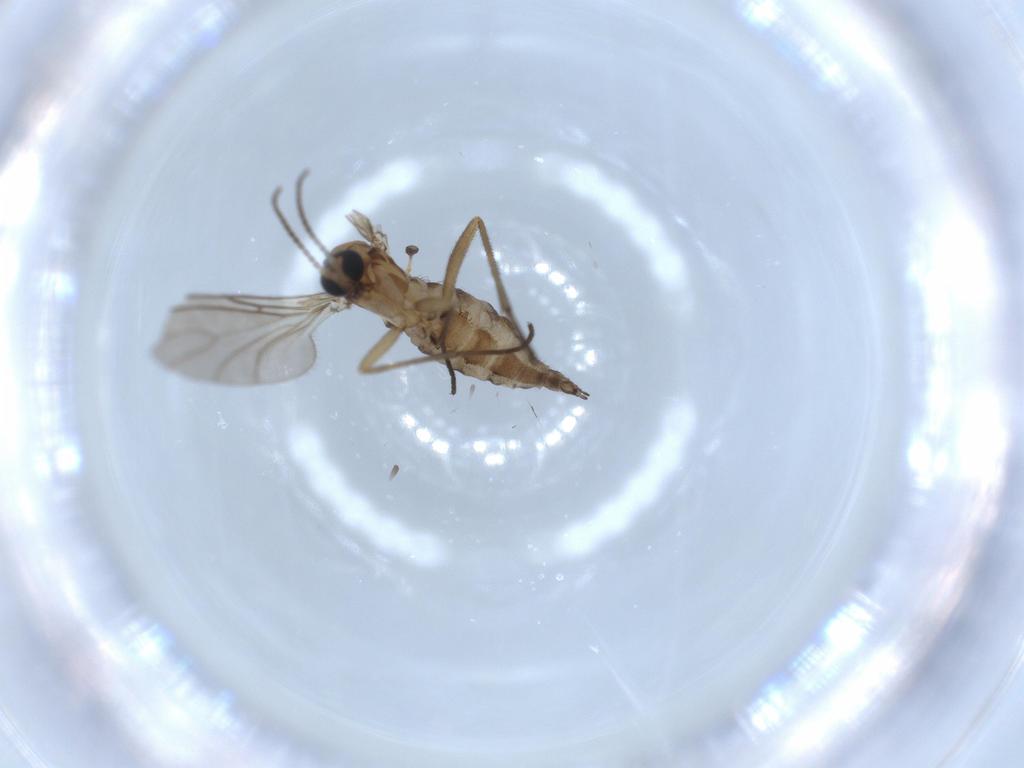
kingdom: Animalia
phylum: Arthropoda
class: Insecta
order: Diptera
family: Sciaridae
